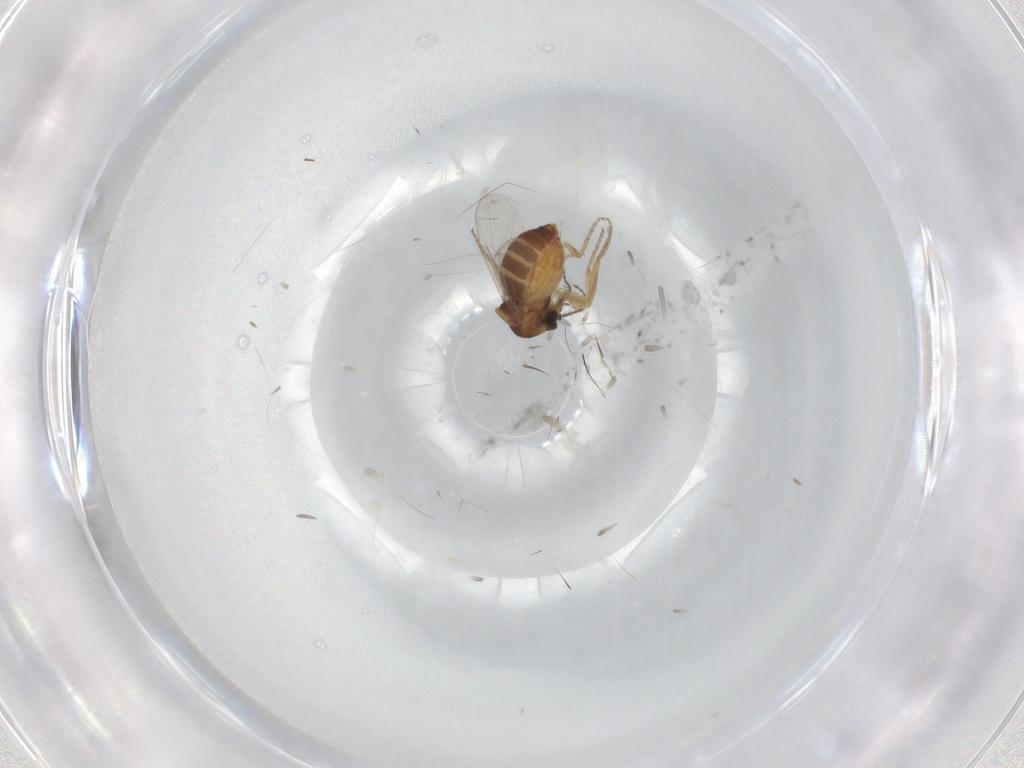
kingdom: Animalia
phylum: Arthropoda
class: Insecta
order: Diptera
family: Ceratopogonidae
